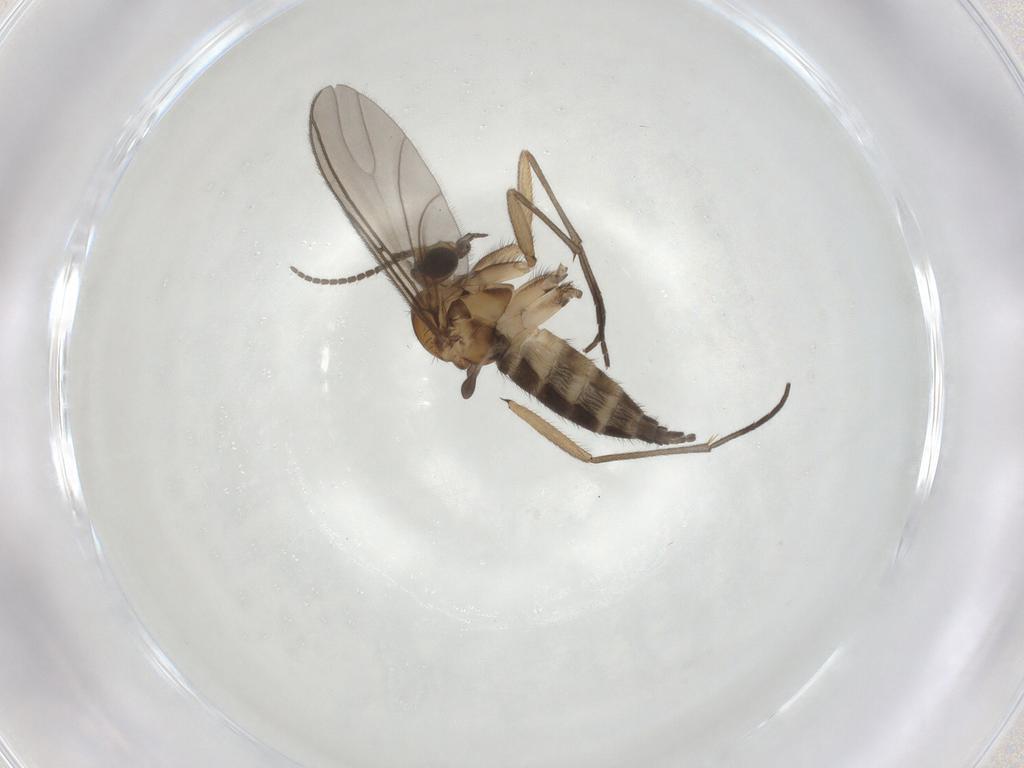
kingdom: Animalia
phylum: Arthropoda
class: Insecta
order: Diptera
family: Sciaridae
